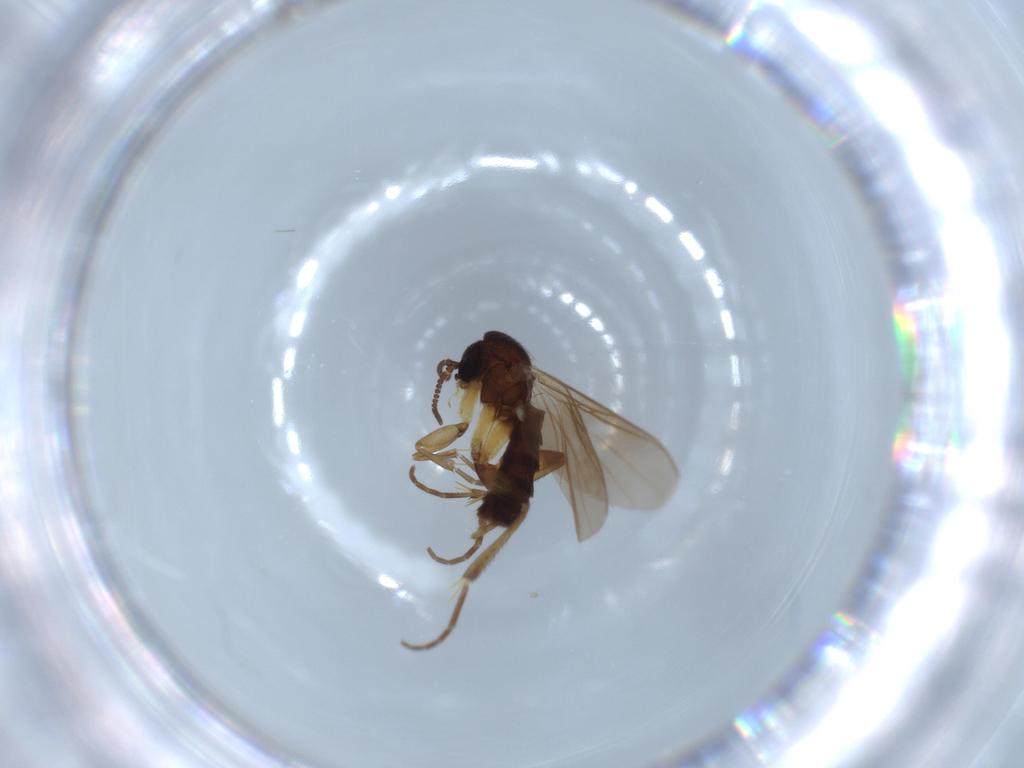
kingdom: Animalia
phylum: Arthropoda
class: Insecta
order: Diptera
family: Mycetophilidae
